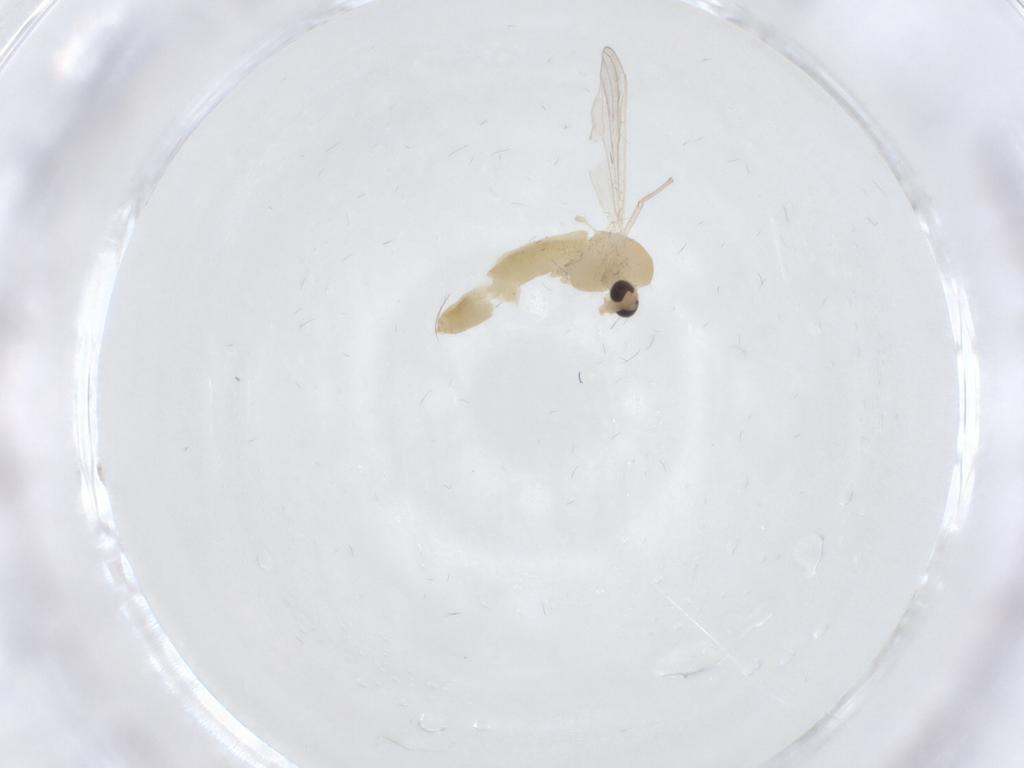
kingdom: Animalia
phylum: Arthropoda
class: Insecta
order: Diptera
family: Chironomidae
